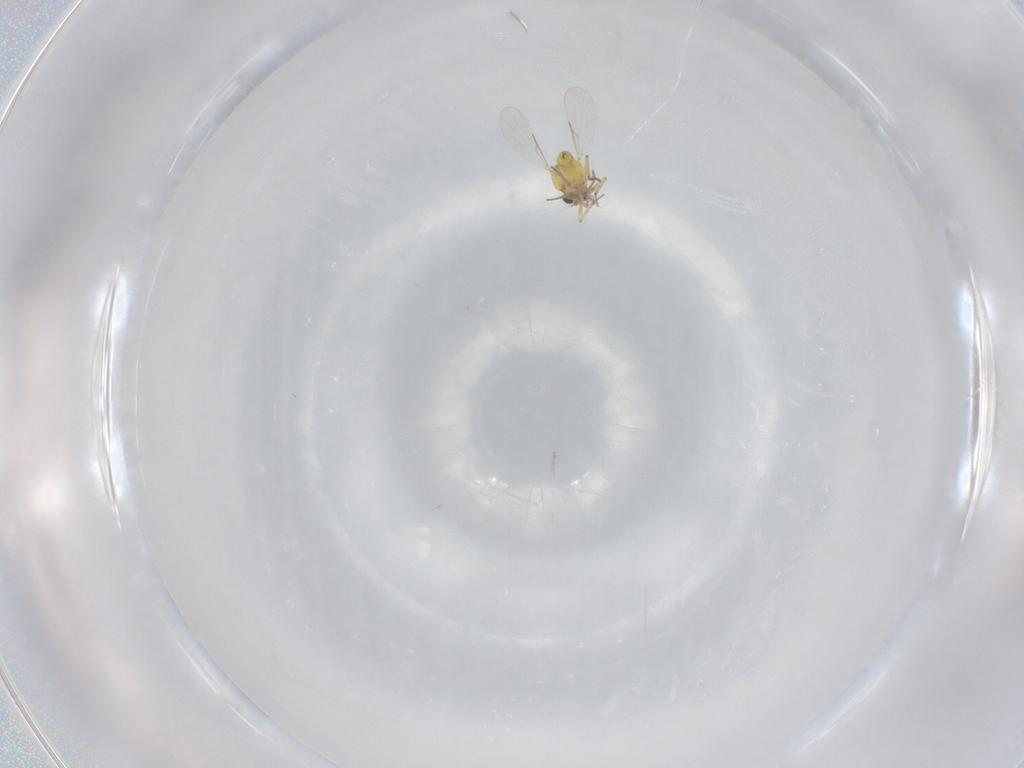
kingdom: Animalia
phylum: Arthropoda
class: Insecta
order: Diptera
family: Ceratopogonidae
